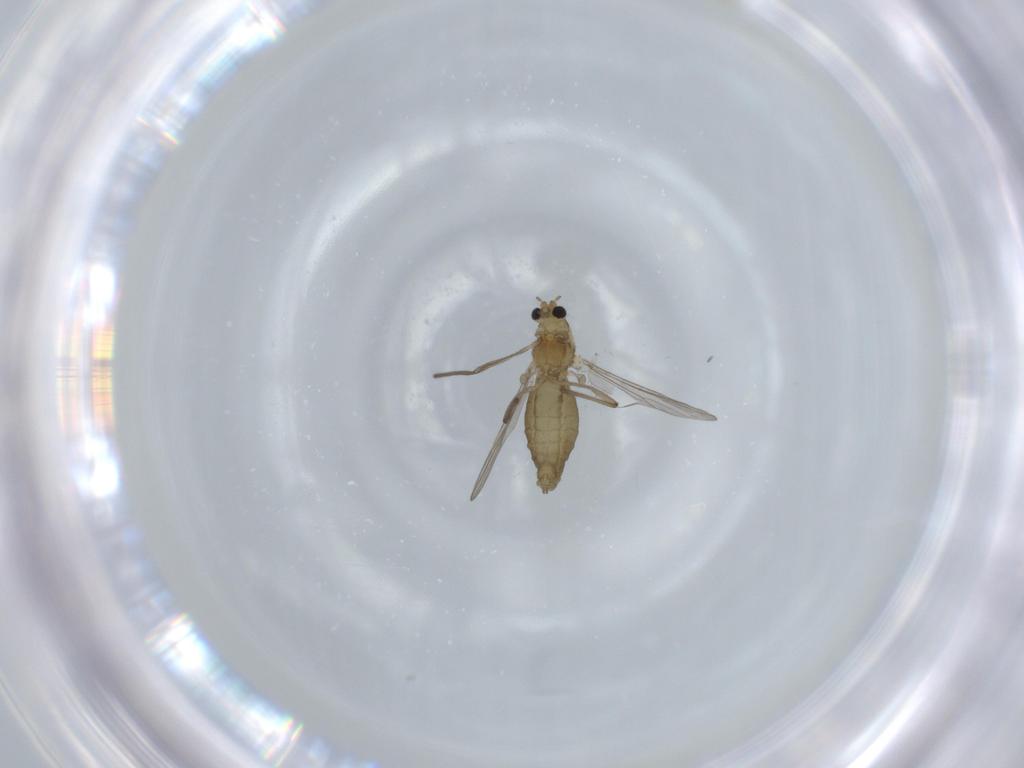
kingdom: Animalia
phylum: Arthropoda
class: Insecta
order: Diptera
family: Chironomidae
